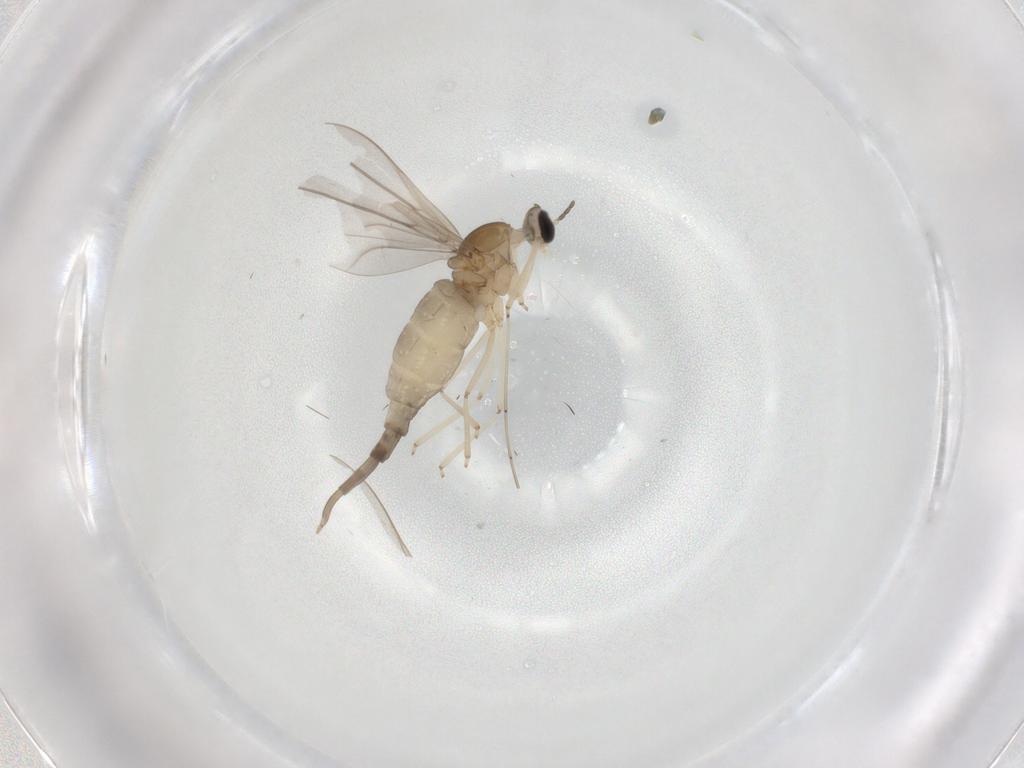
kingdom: Animalia
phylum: Arthropoda
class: Insecta
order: Diptera
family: Cecidomyiidae
